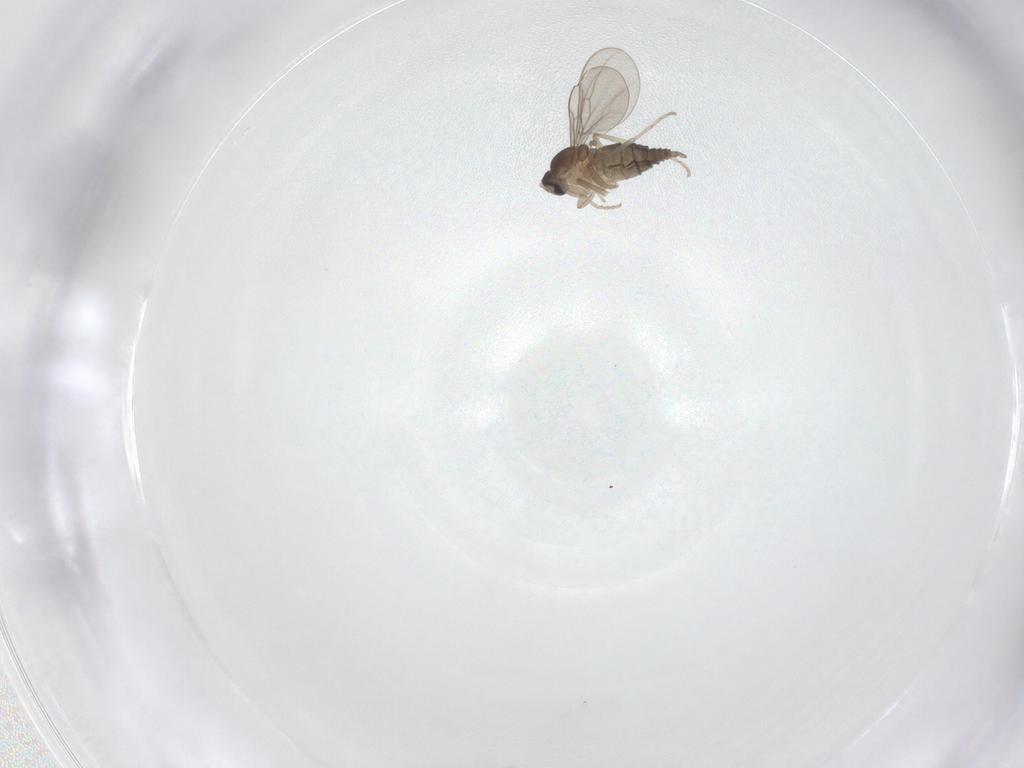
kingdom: Animalia
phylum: Arthropoda
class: Insecta
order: Diptera
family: Cecidomyiidae
